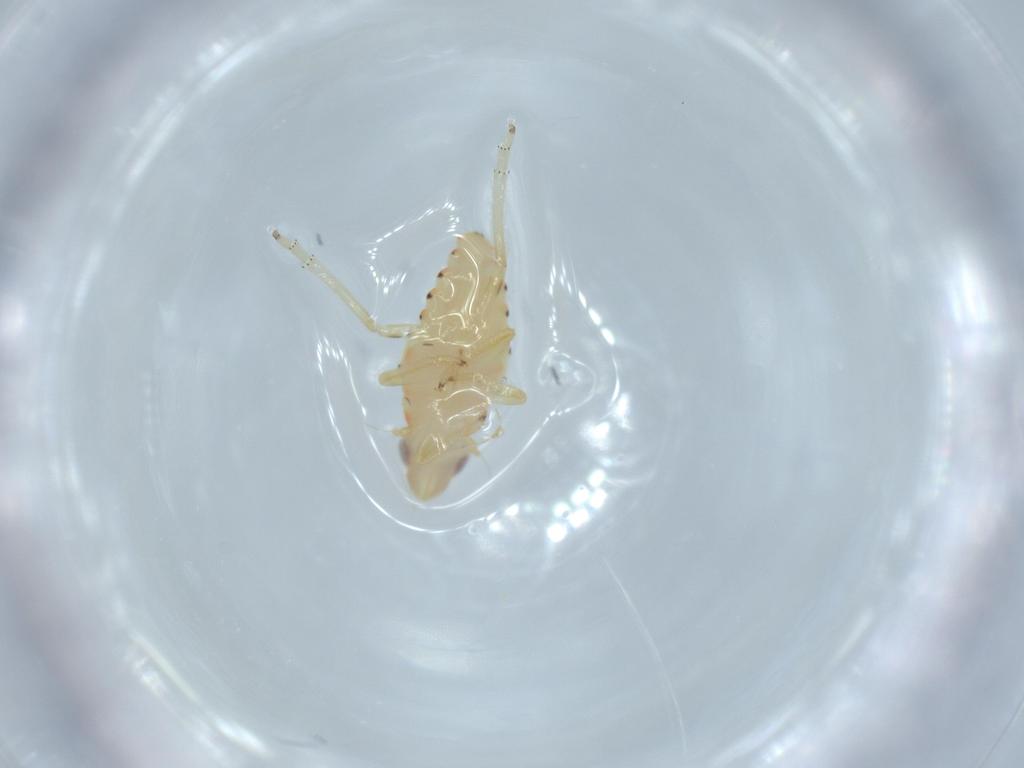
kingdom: Animalia
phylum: Arthropoda
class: Insecta
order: Hemiptera
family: Tropiduchidae
